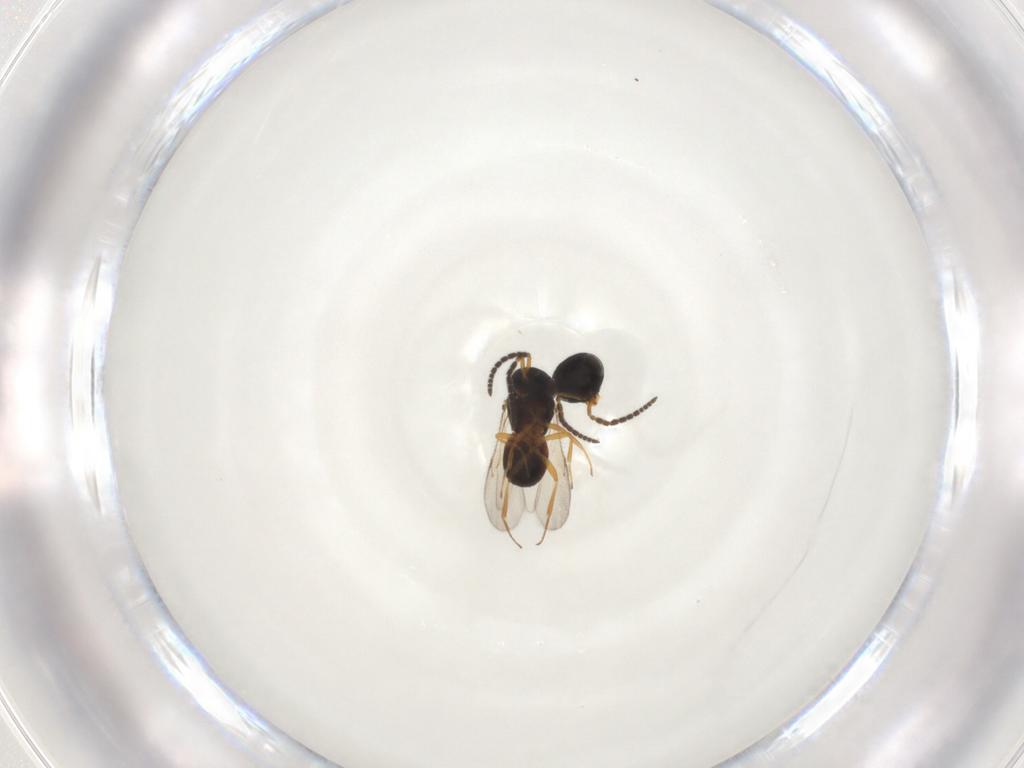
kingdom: Animalia
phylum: Arthropoda
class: Insecta
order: Hymenoptera
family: Scelionidae
